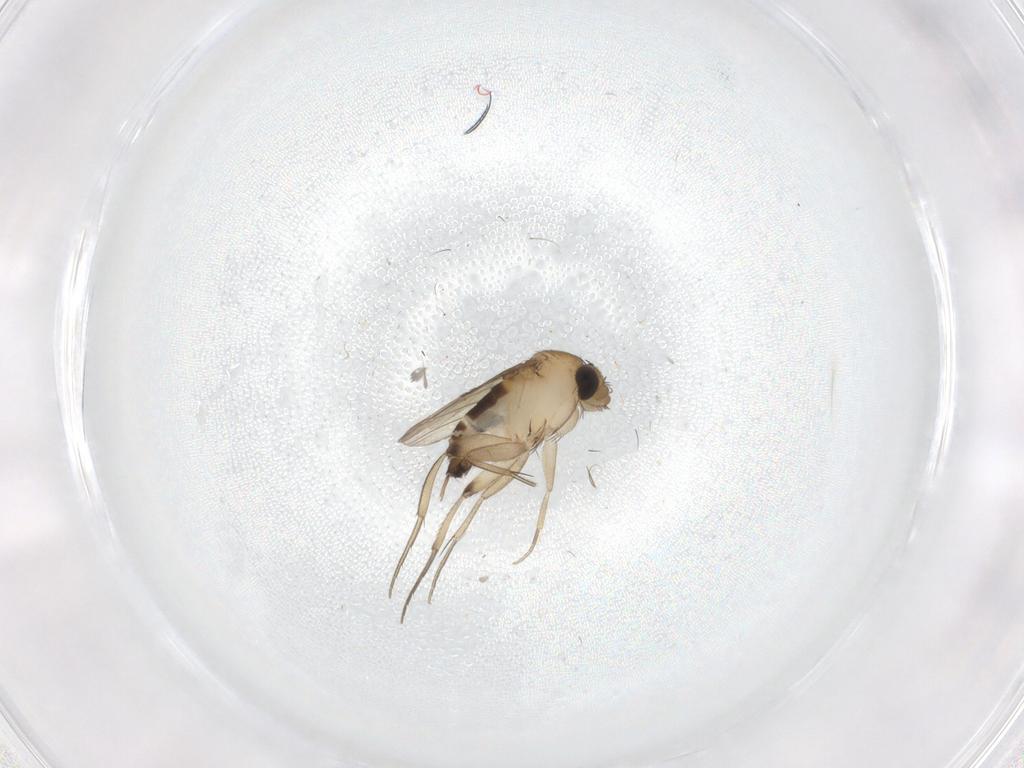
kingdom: Animalia
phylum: Arthropoda
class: Insecta
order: Diptera
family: Phoridae
